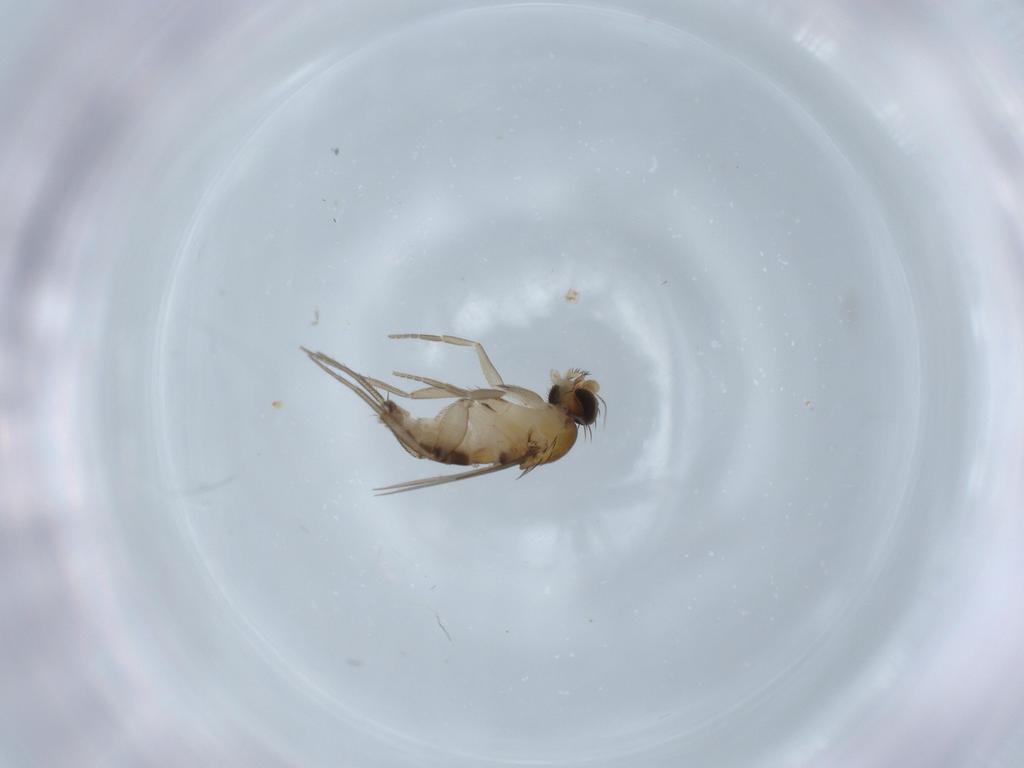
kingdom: Animalia
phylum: Arthropoda
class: Insecta
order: Diptera
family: Phoridae
